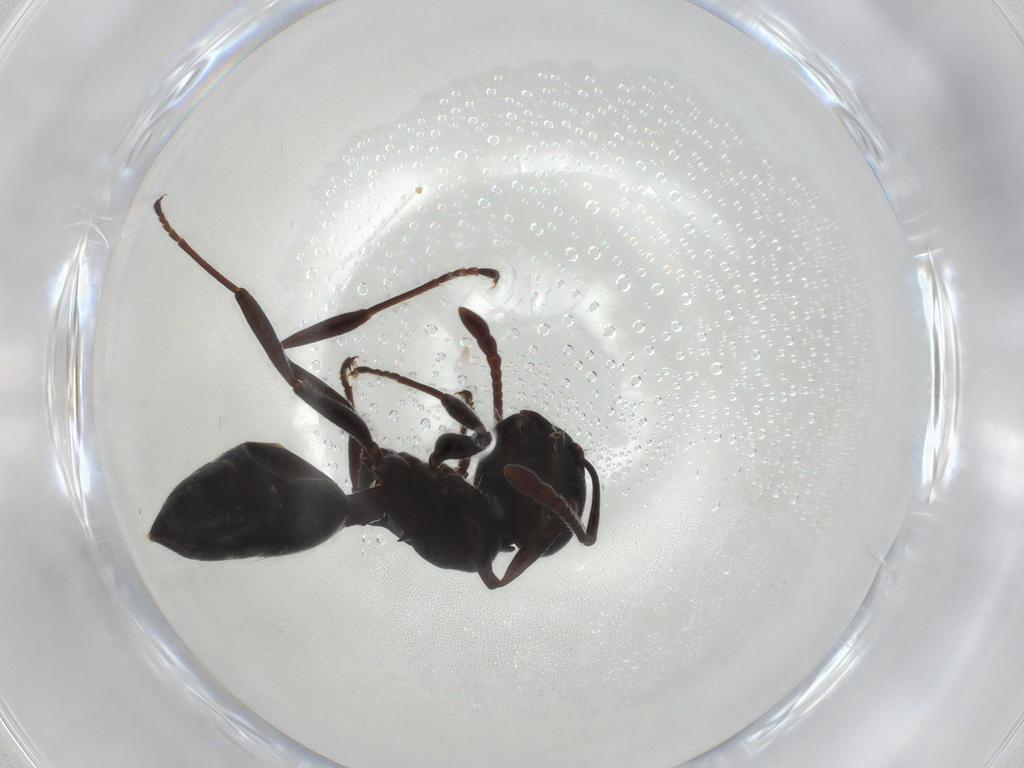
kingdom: Animalia
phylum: Arthropoda
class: Insecta
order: Hymenoptera
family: Formicidae
